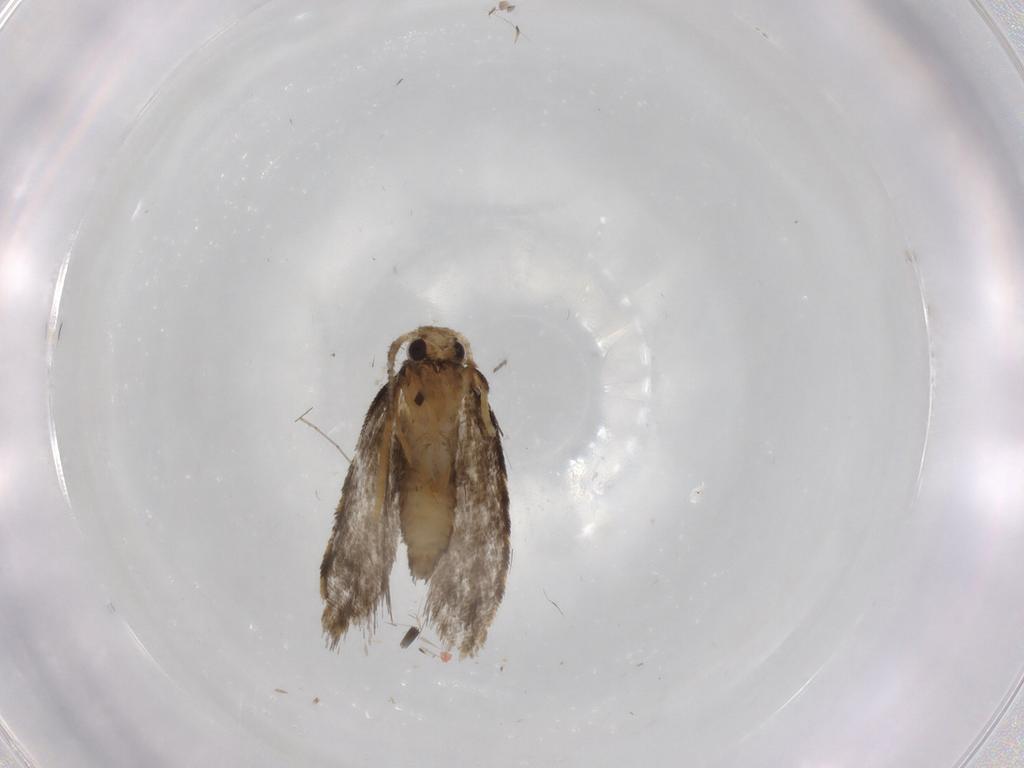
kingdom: Animalia
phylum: Arthropoda
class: Insecta
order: Lepidoptera
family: Psychidae
